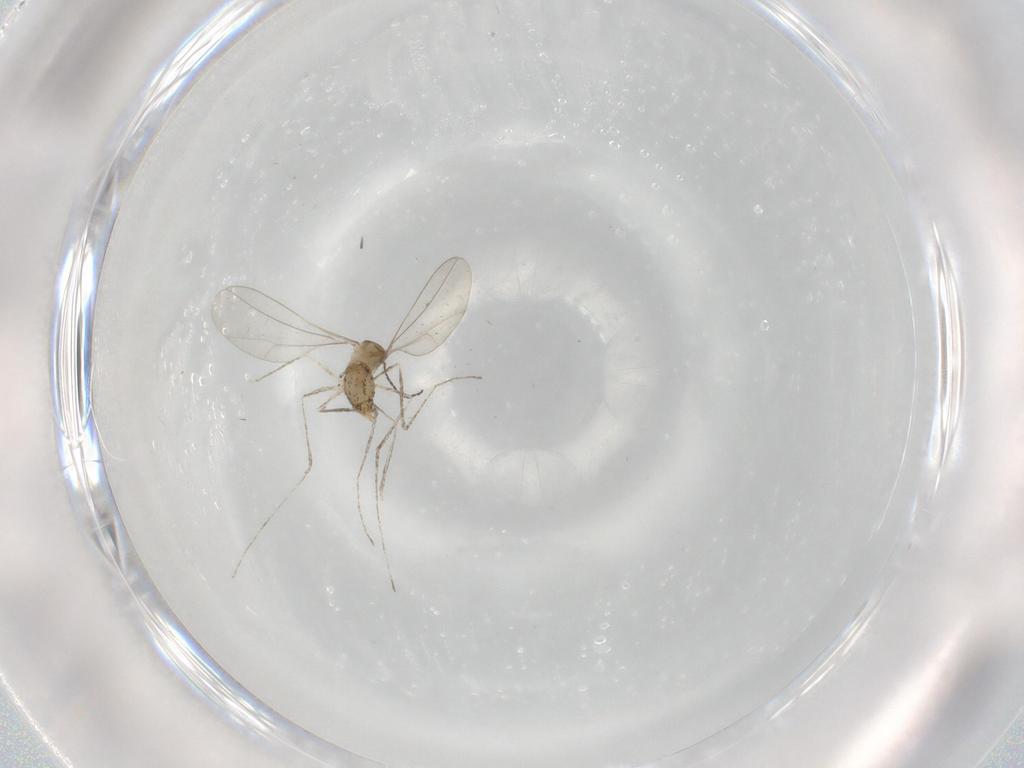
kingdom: Animalia
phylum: Arthropoda
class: Insecta
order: Diptera
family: Cecidomyiidae
